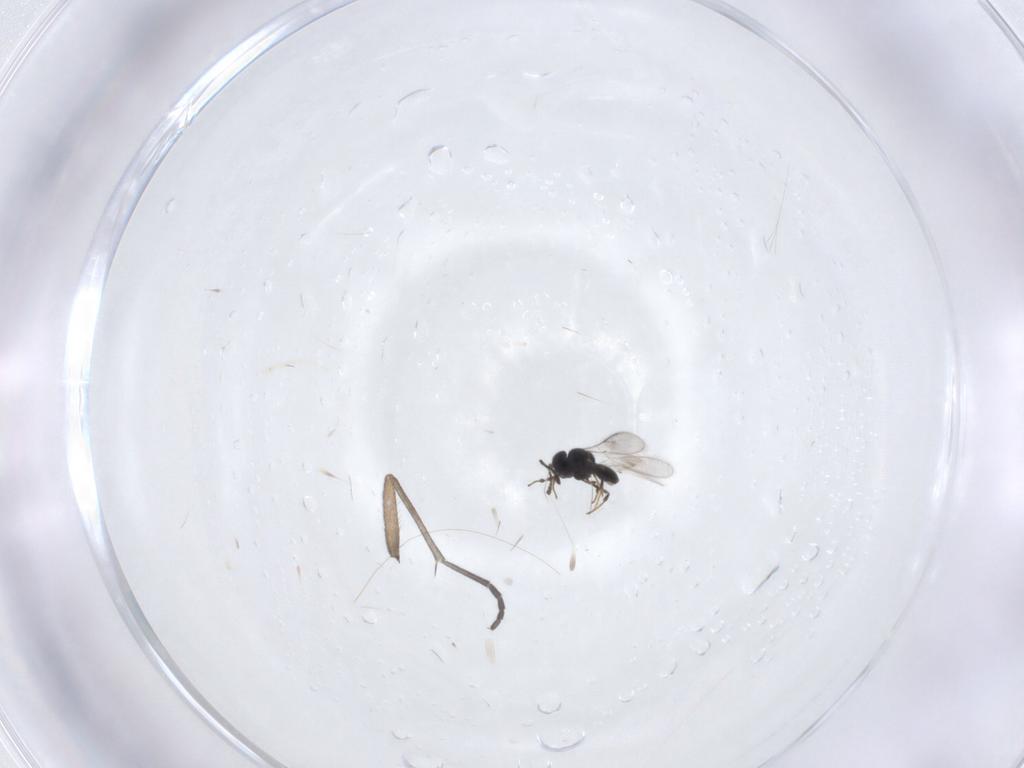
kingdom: Animalia
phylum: Arthropoda
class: Insecta
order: Hymenoptera
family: Scelionidae
